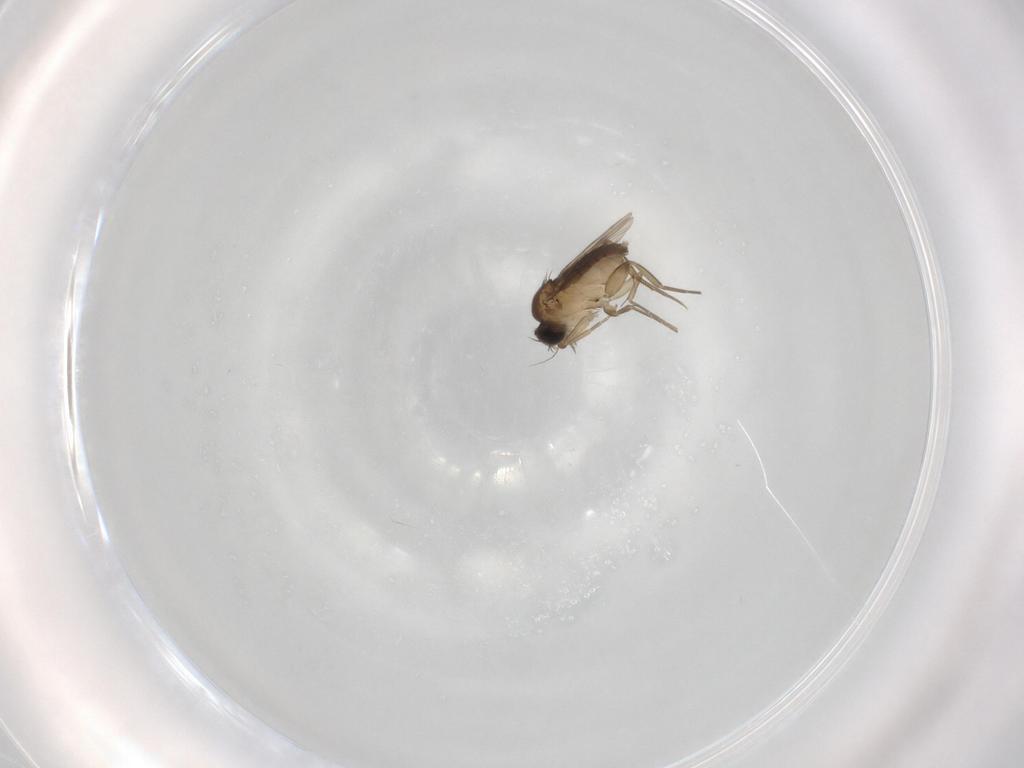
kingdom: Animalia
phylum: Arthropoda
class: Insecta
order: Diptera
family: Phoridae
